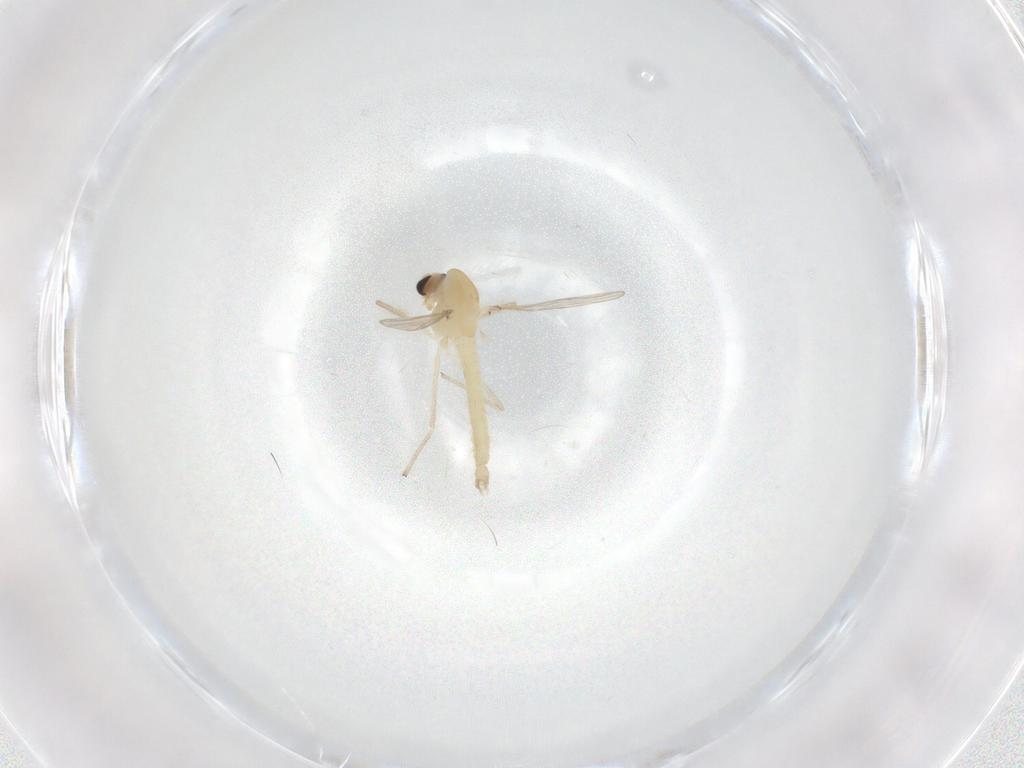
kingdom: Animalia
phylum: Arthropoda
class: Insecta
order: Diptera
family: Chironomidae
